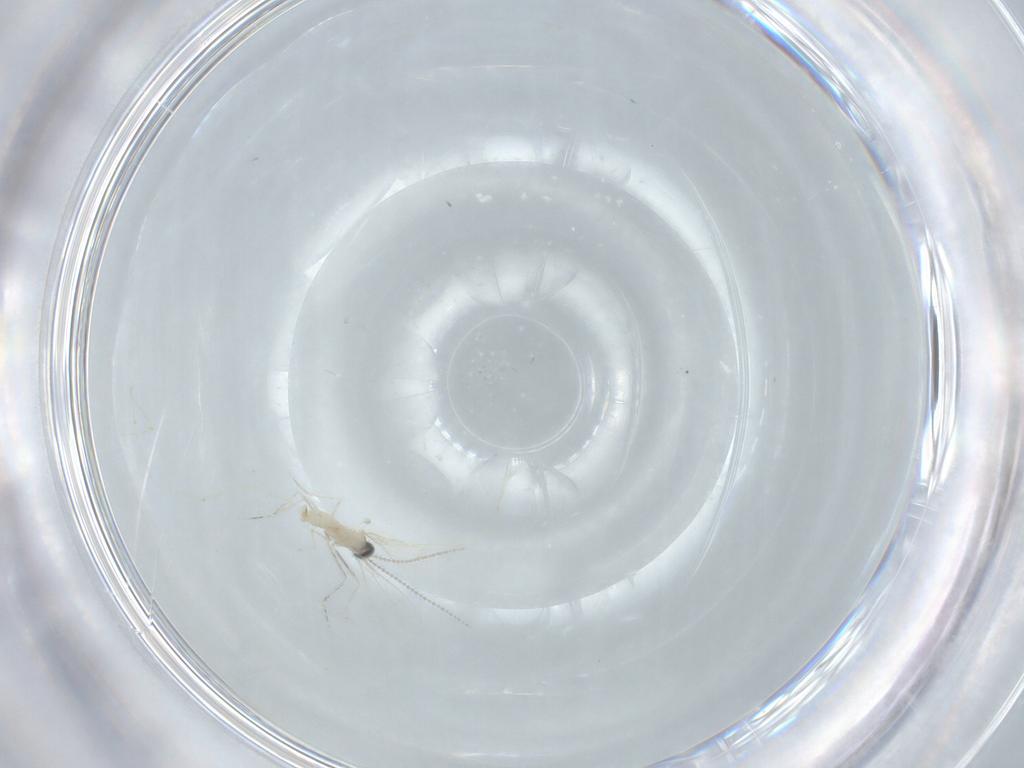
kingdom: Animalia
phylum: Arthropoda
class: Insecta
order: Diptera
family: Cecidomyiidae
